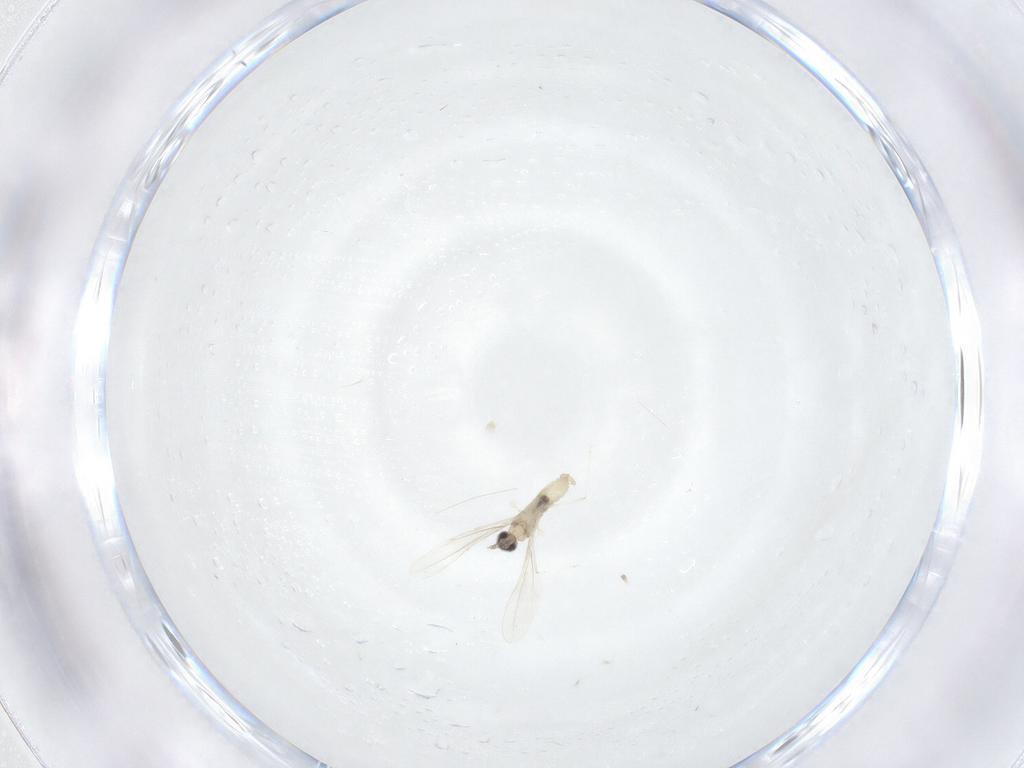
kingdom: Animalia
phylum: Arthropoda
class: Insecta
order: Diptera
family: Cecidomyiidae
